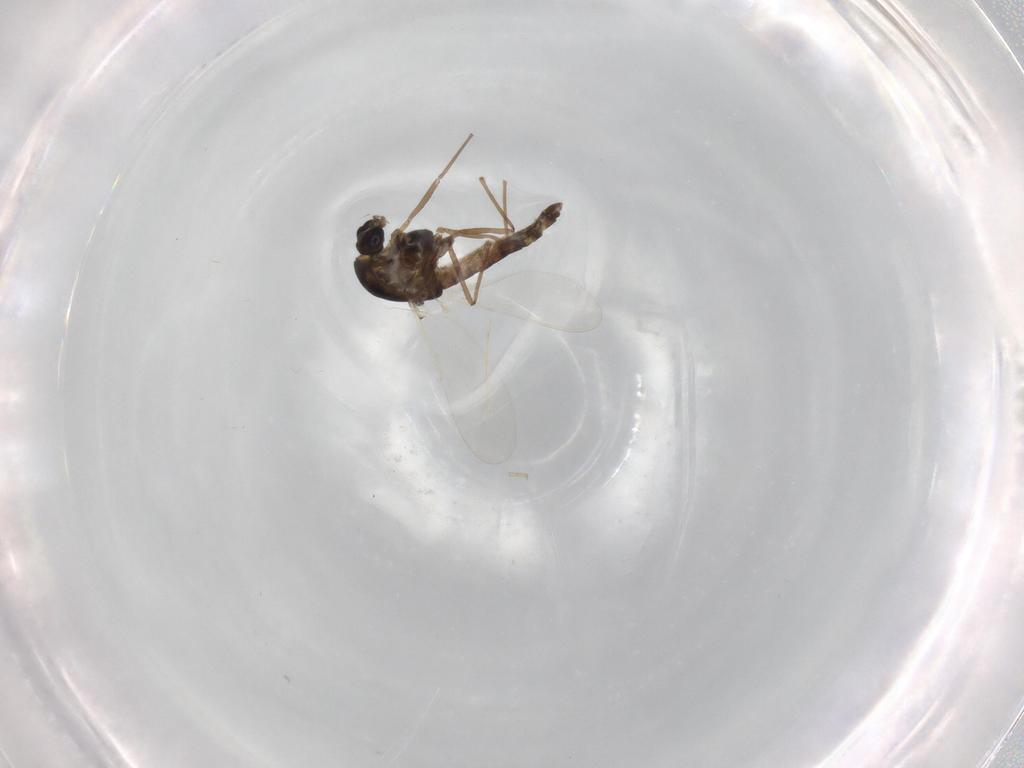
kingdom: Animalia
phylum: Arthropoda
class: Insecta
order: Diptera
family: Chironomidae
